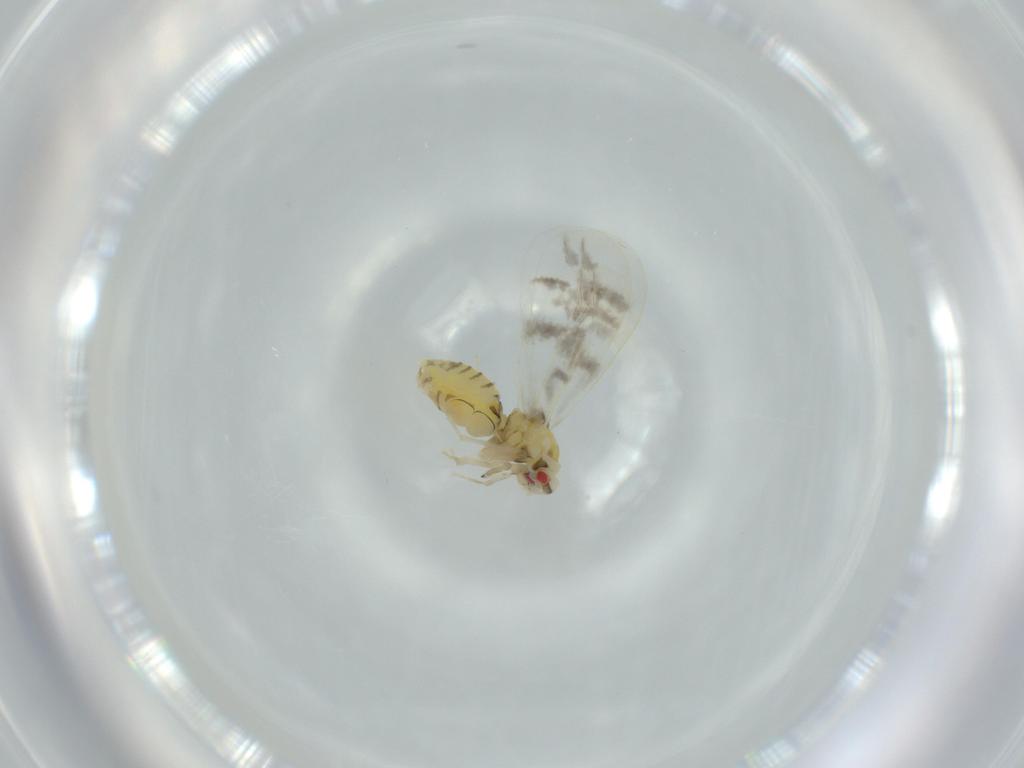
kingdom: Animalia
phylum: Arthropoda
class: Insecta
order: Hemiptera
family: Aleyrodidae
